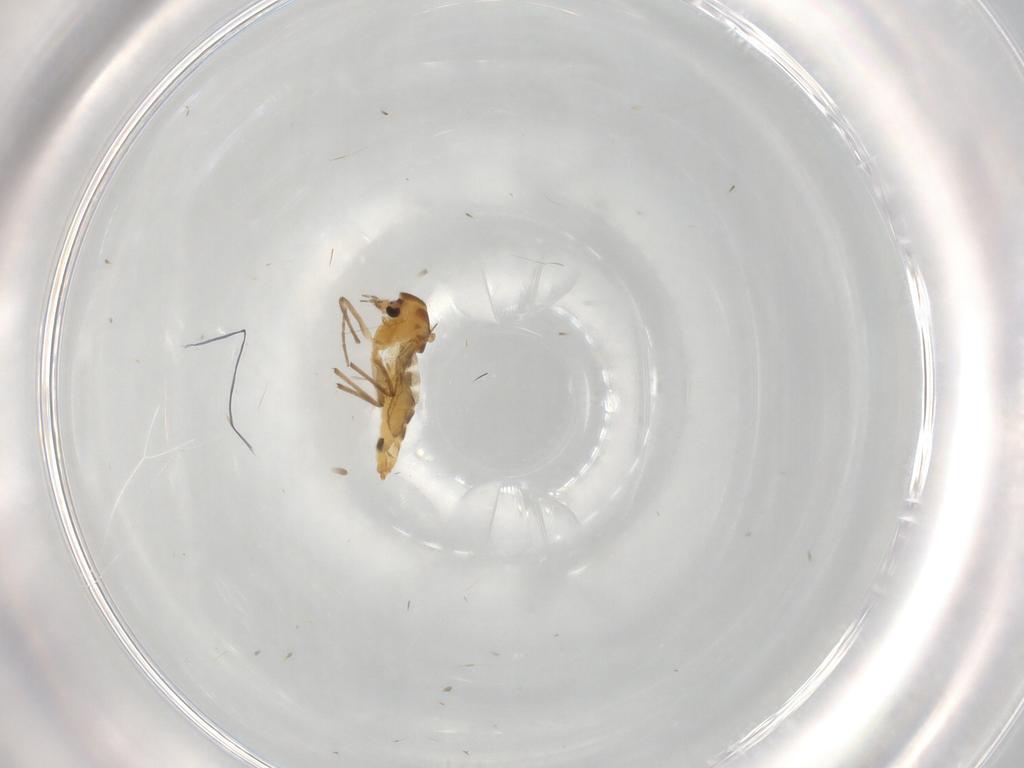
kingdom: Animalia
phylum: Arthropoda
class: Insecta
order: Diptera
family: Chironomidae
